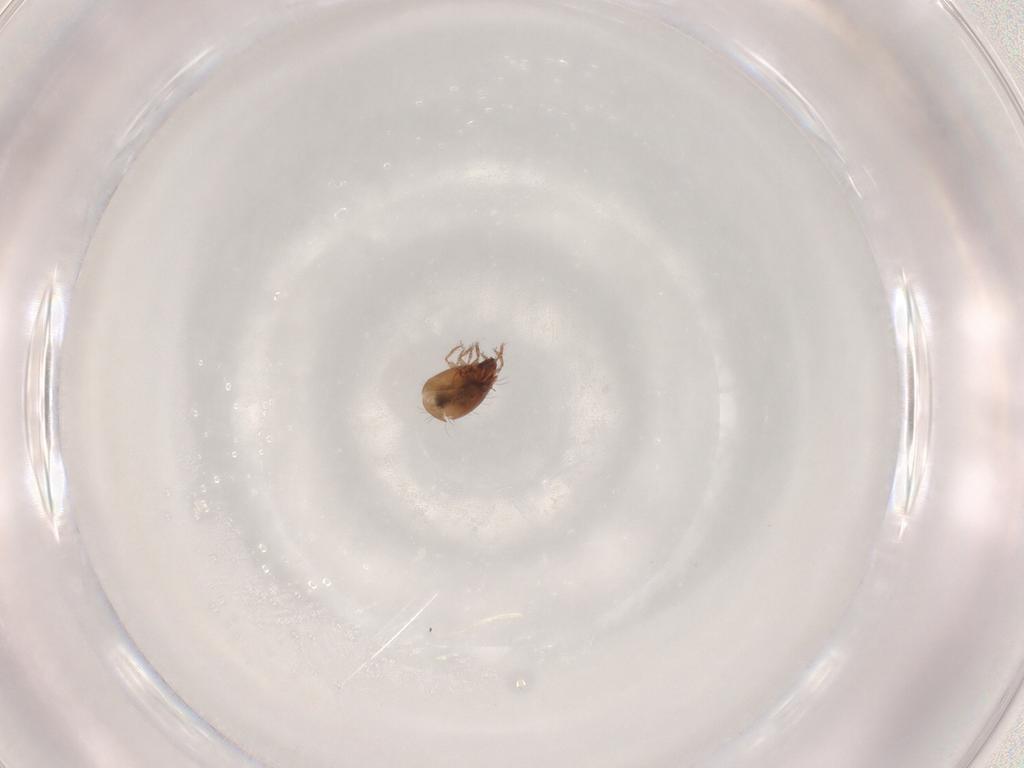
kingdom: Animalia
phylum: Arthropoda
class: Arachnida
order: Sarcoptiformes
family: Humerobatidae
